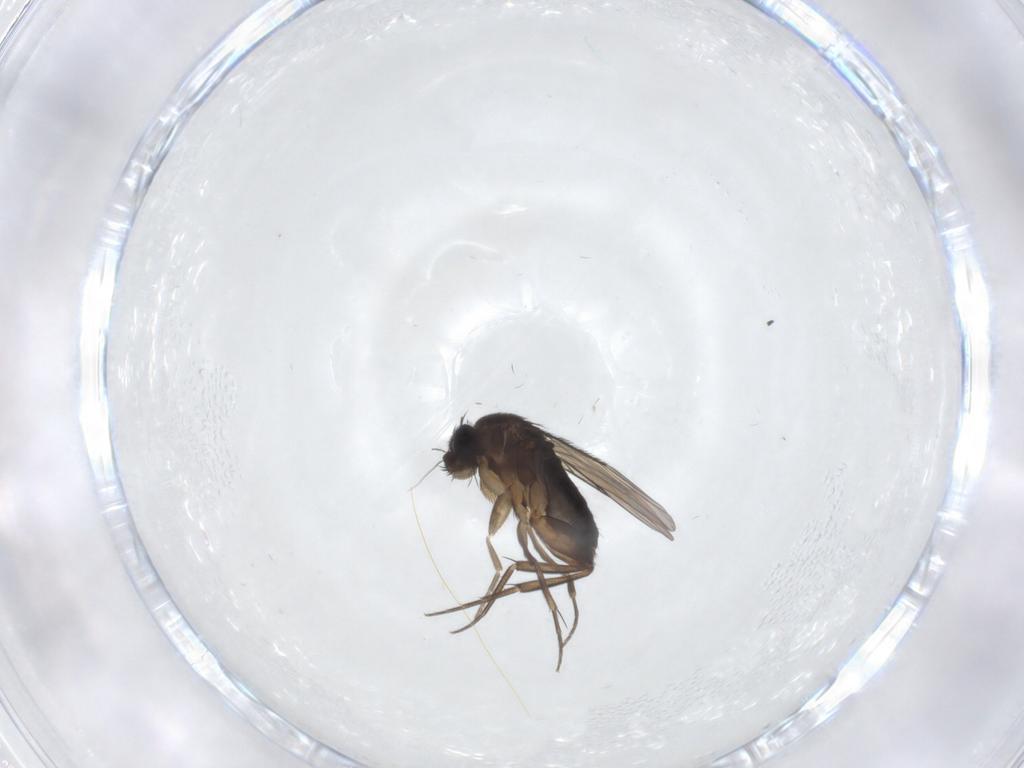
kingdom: Animalia
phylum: Arthropoda
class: Insecta
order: Diptera
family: Phoridae
